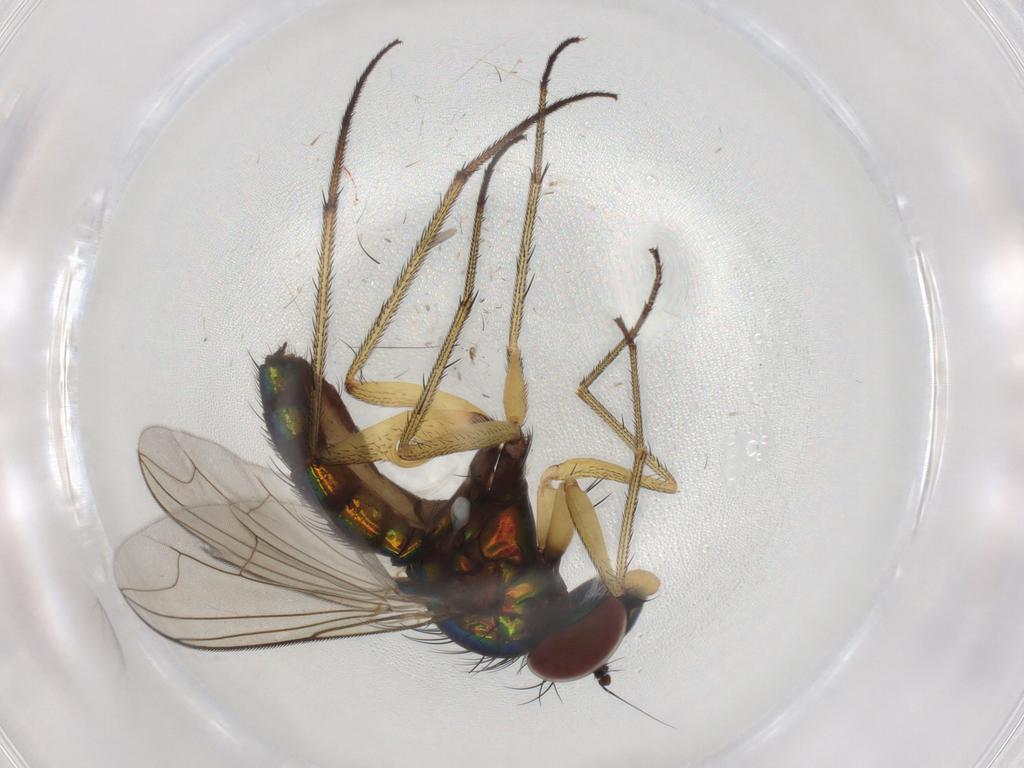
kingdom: Animalia
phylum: Arthropoda
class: Insecta
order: Diptera
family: Dolichopodidae
